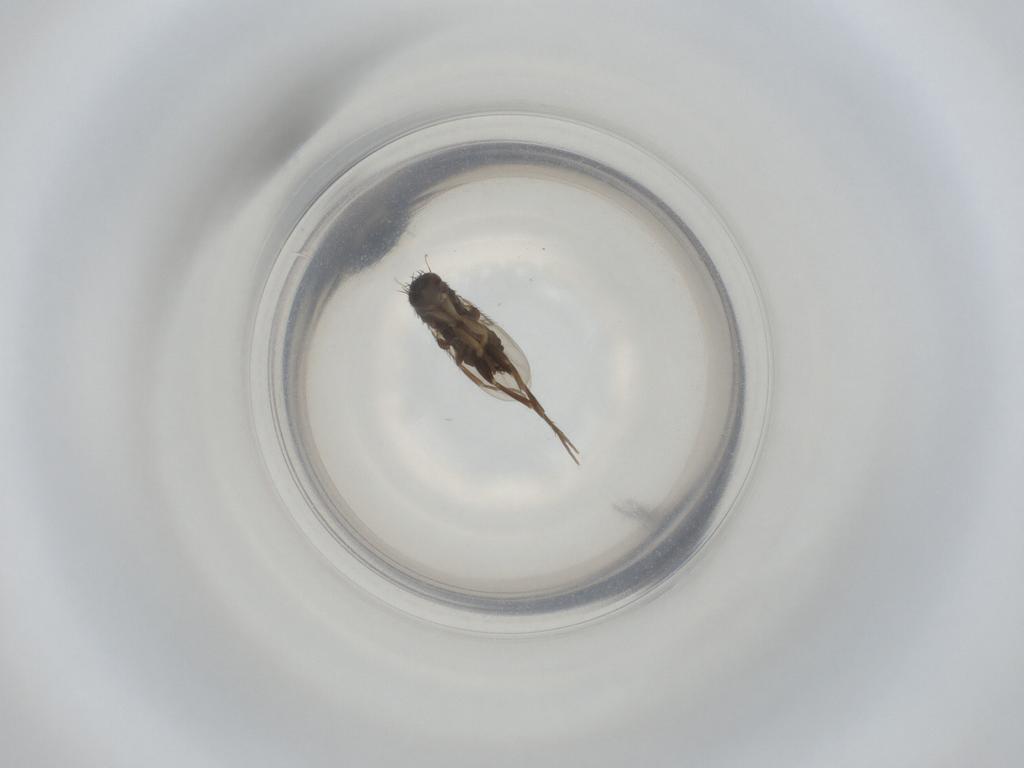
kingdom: Animalia
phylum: Arthropoda
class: Insecta
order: Diptera
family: Phoridae
